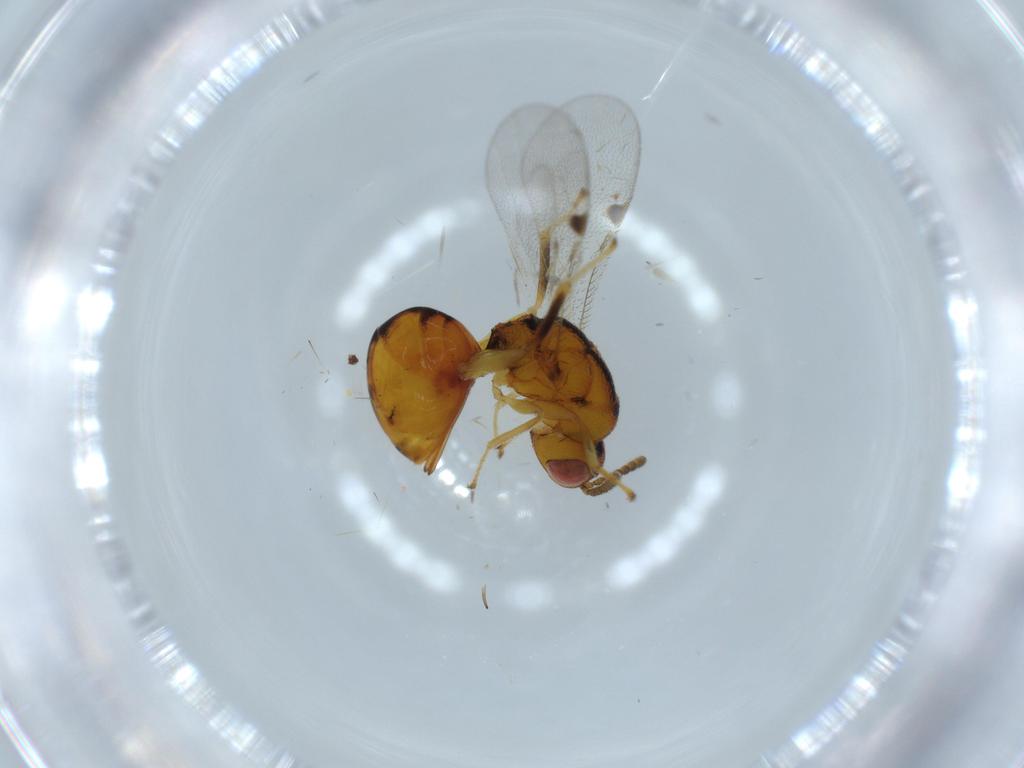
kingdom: Animalia
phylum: Arthropoda
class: Insecta
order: Hymenoptera
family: Eurytomidae
